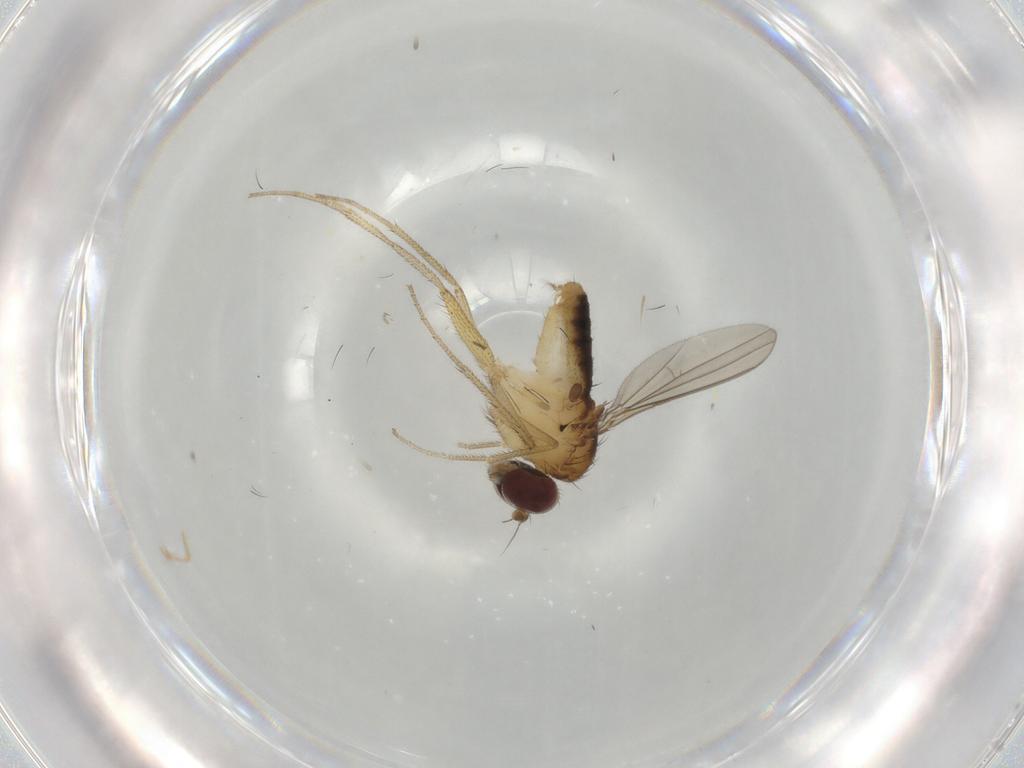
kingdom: Animalia
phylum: Arthropoda
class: Insecta
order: Diptera
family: Dolichopodidae
